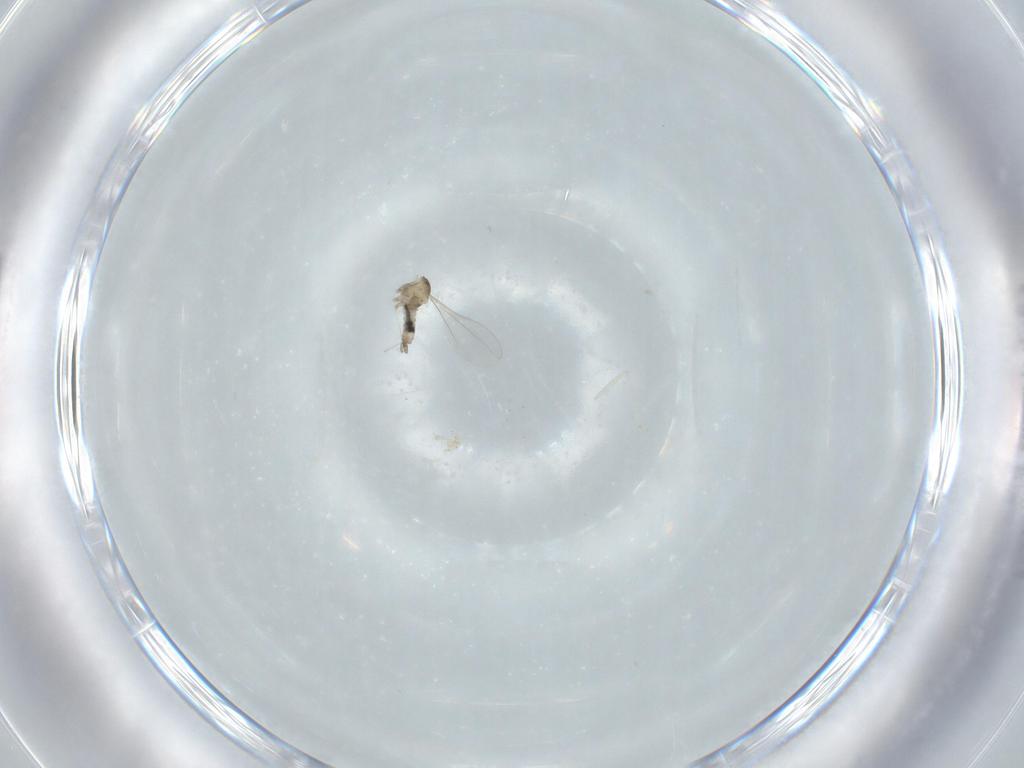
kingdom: Animalia
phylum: Arthropoda
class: Insecta
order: Diptera
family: Cecidomyiidae
